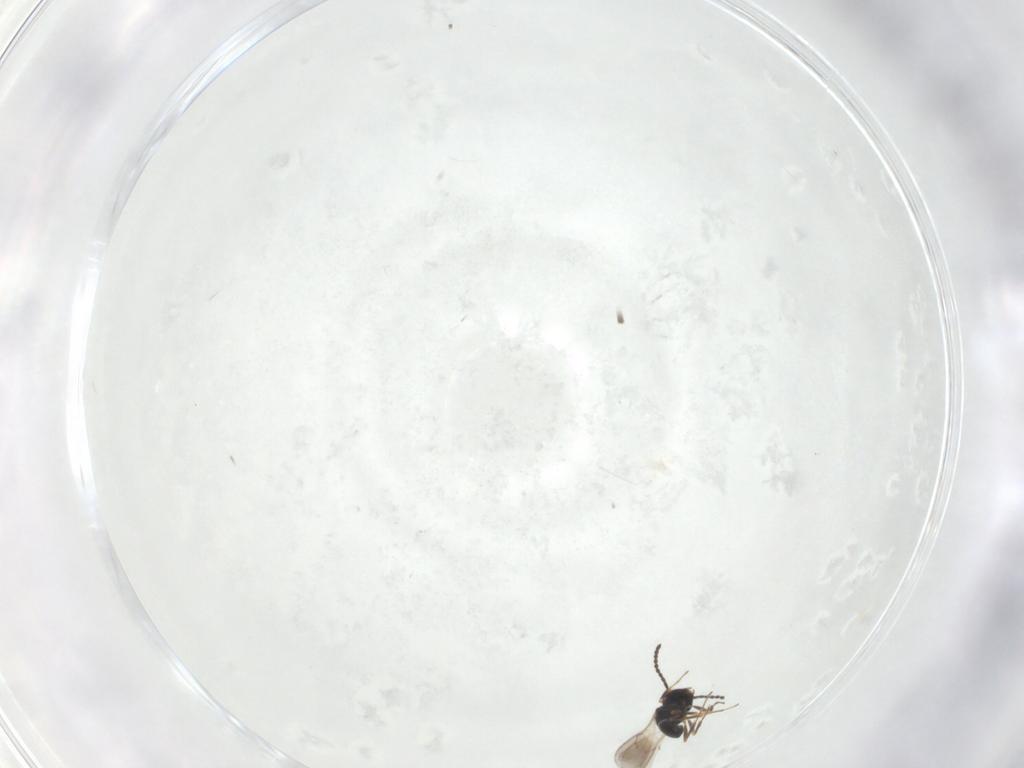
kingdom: Animalia
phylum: Arthropoda
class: Insecta
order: Hymenoptera
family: Scelionidae
